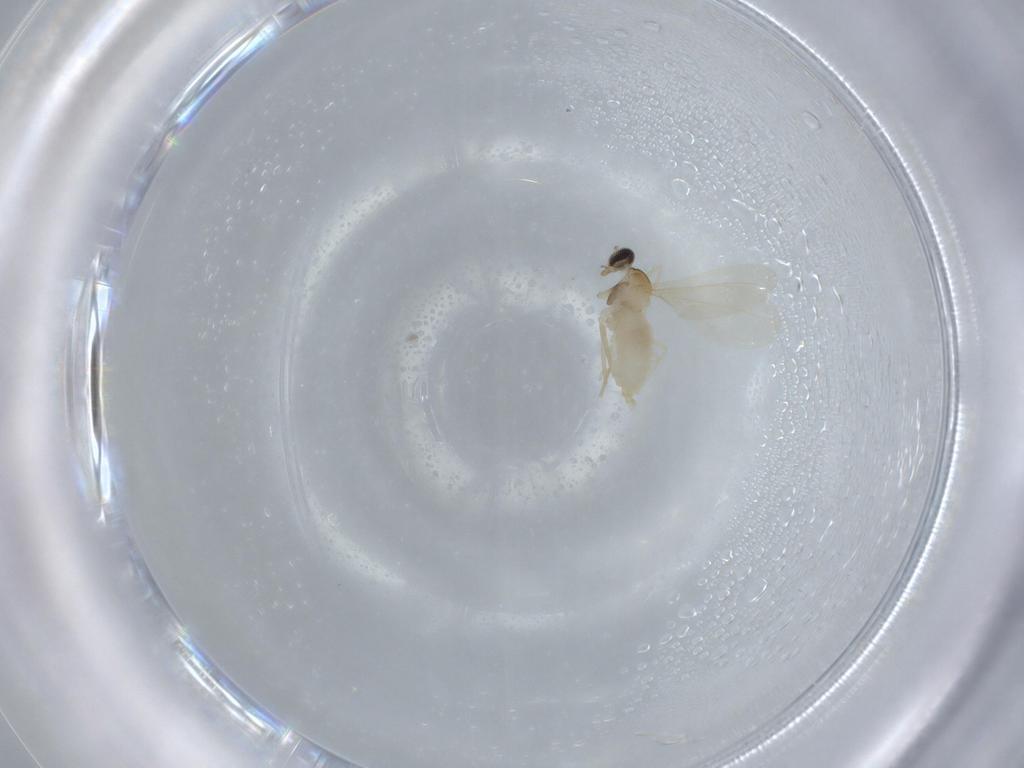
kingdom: Animalia
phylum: Arthropoda
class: Insecta
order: Diptera
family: Cecidomyiidae
